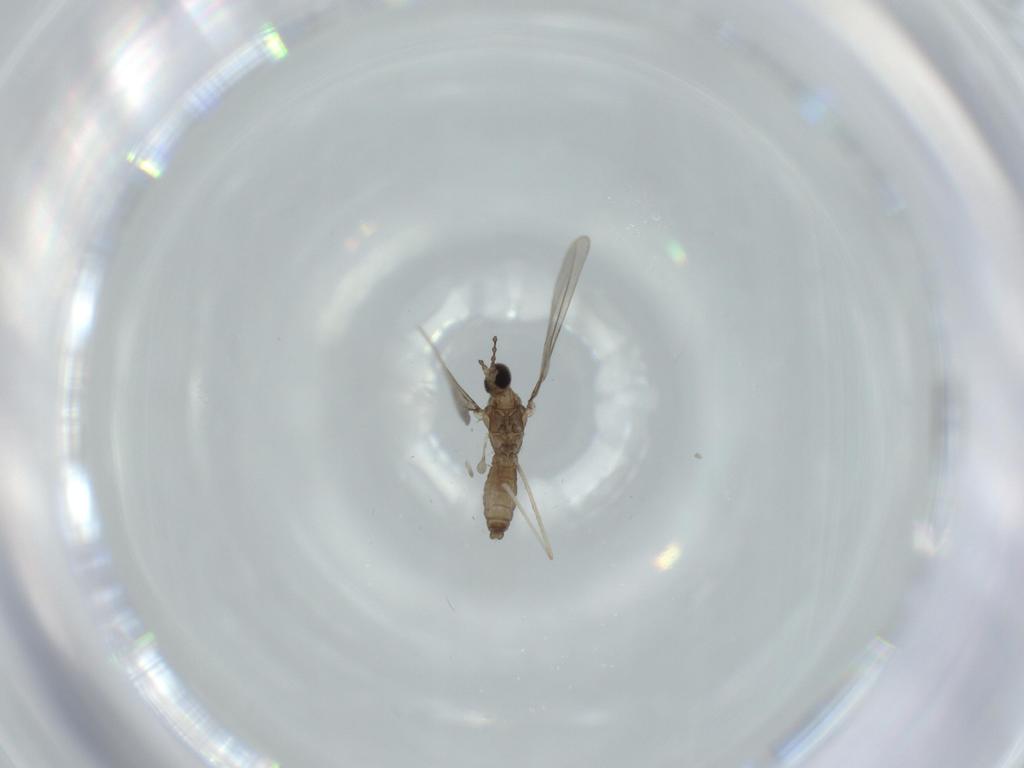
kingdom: Animalia
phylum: Arthropoda
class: Insecta
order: Diptera
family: Cecidomyiidae
